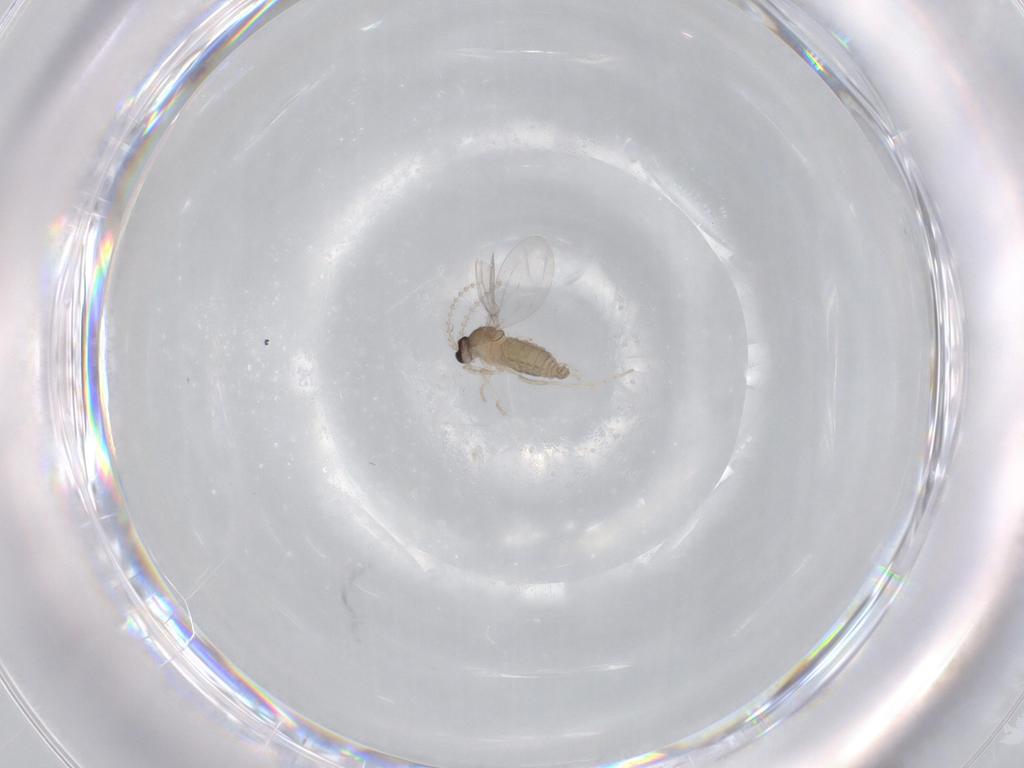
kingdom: Animalia
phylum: Arthropoda
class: Insecta
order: Diptera
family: Cecidomyiidae
